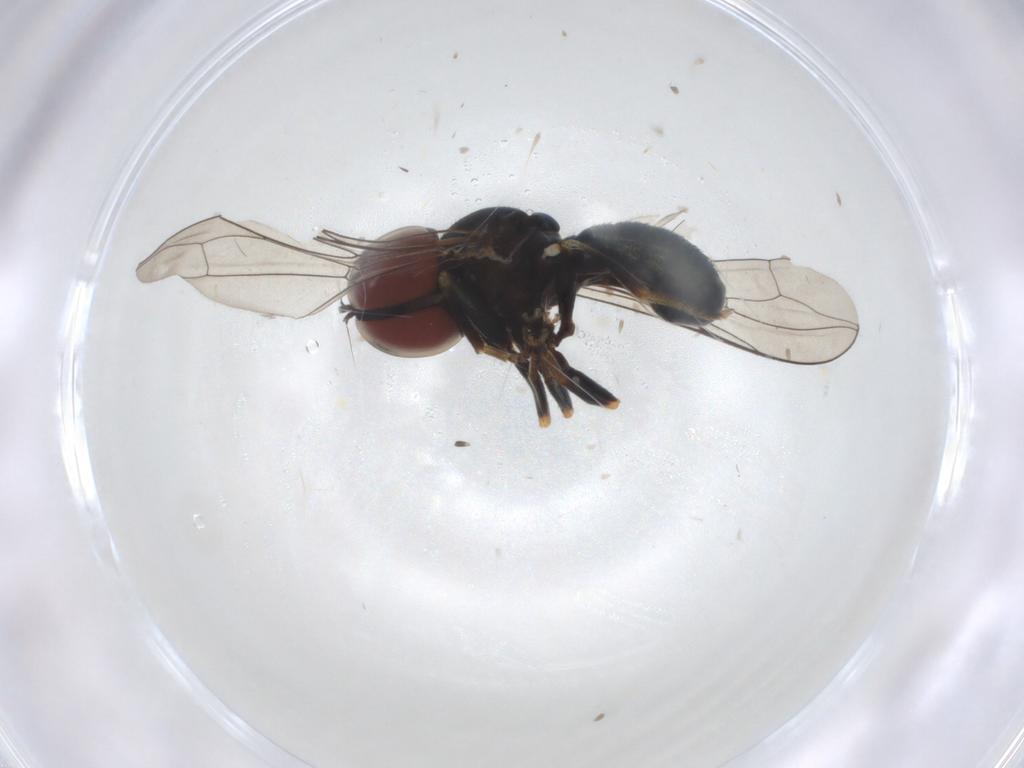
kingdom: Animalia
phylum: Arthropoda
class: Insecta
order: Diptera
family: Pipunculidae
